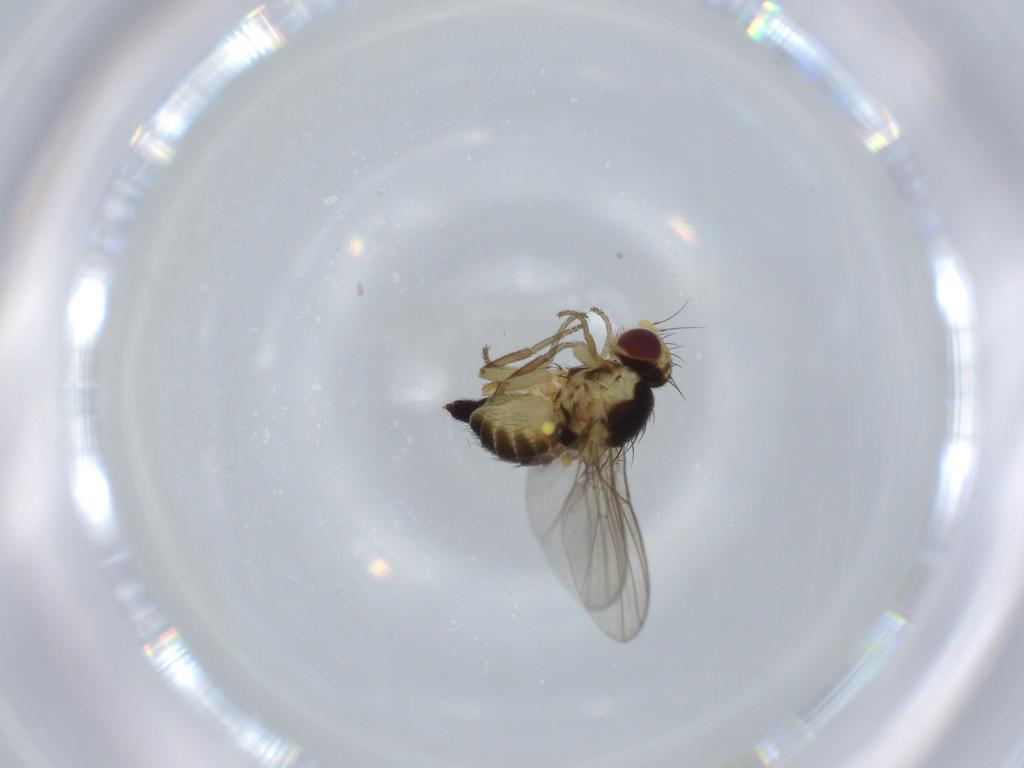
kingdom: Animalia
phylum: Arthropoda
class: Insecta
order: Diptera
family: Agromyzidae
